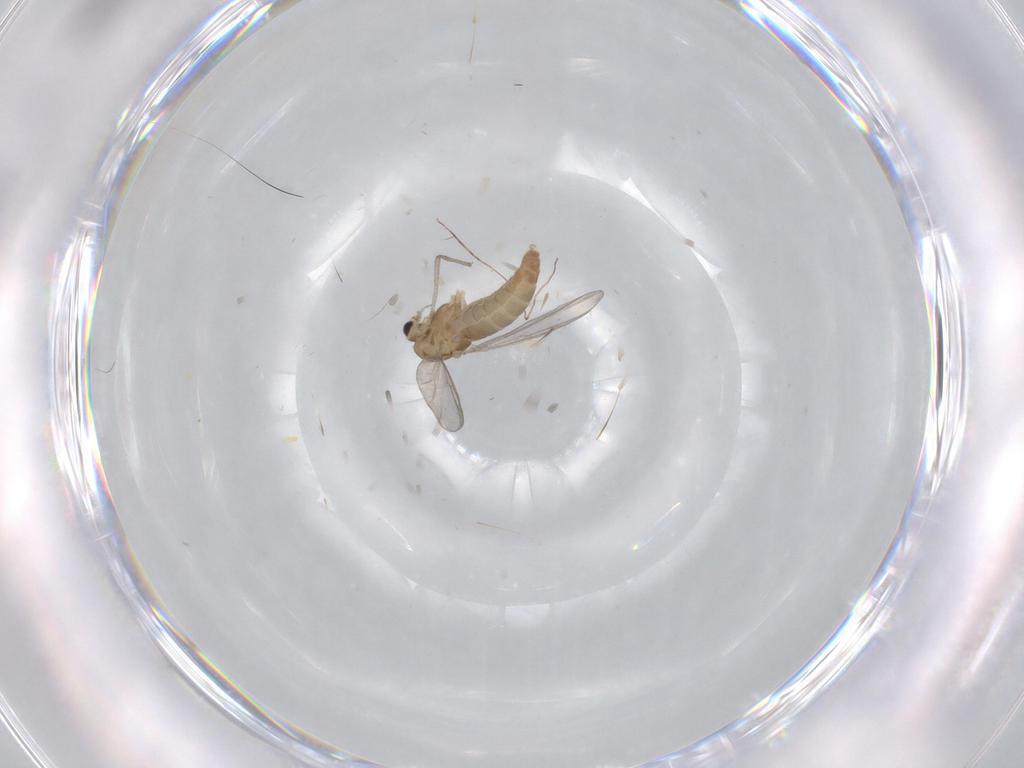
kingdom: Animalia
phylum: Arthropoda
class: Insecta
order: Diptera
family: Chironomidae
